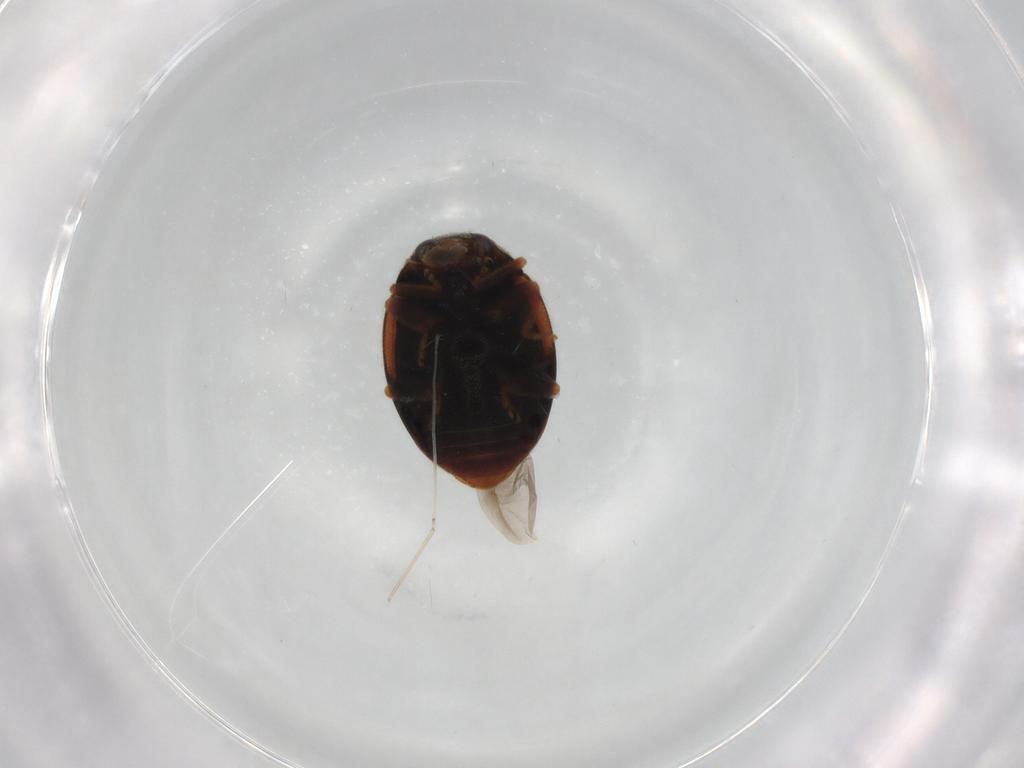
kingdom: Animalia
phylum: Arthropoda
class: Insecta
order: Coleoptera
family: Coccinellidae
